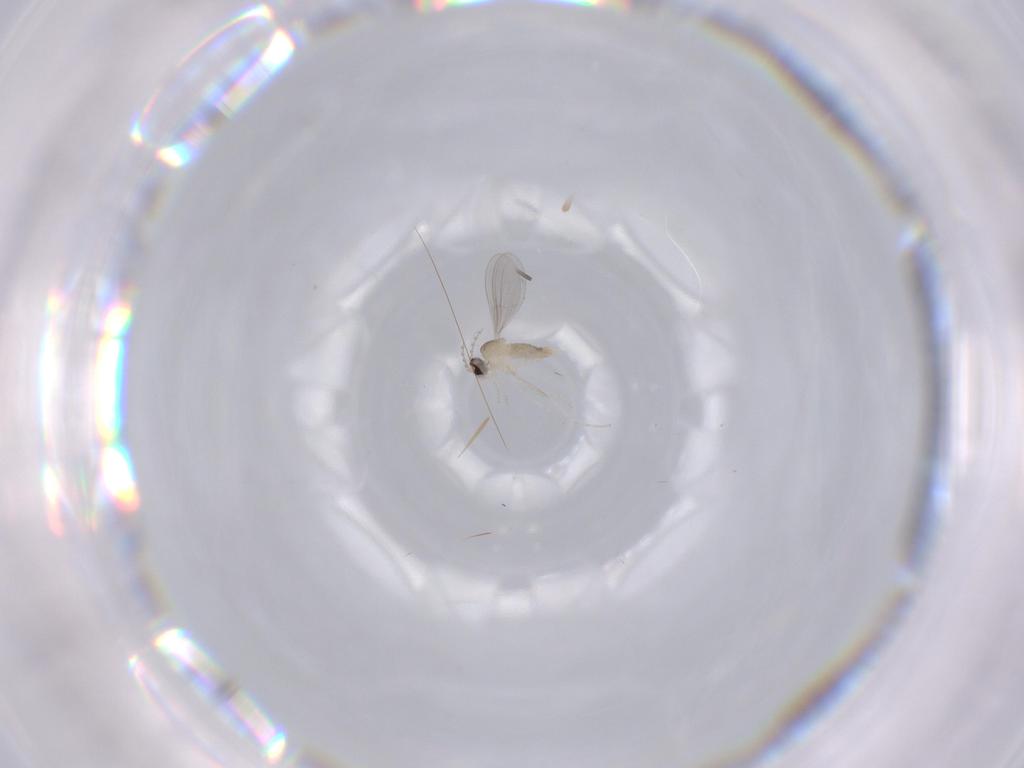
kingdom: Animalia
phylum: Arthropoda
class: Insecta
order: Diptera
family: Cecidomyiidae
